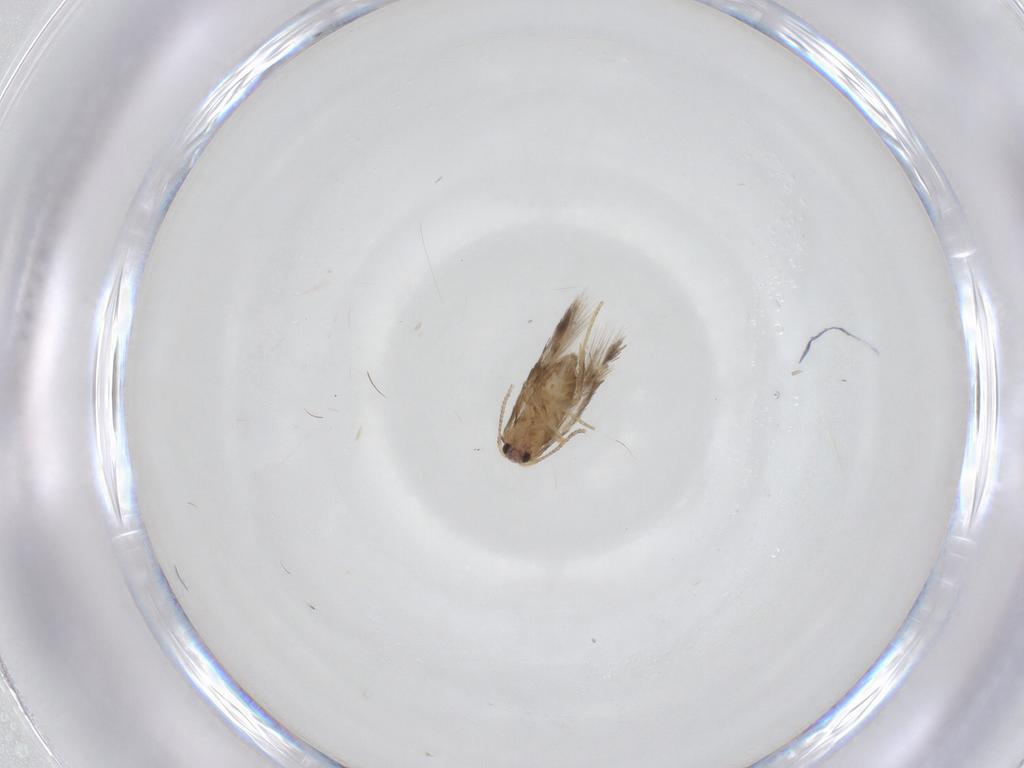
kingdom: Animalia
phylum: Arthropoda
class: Insecta
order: Lepidoptera
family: Nepticulidae
